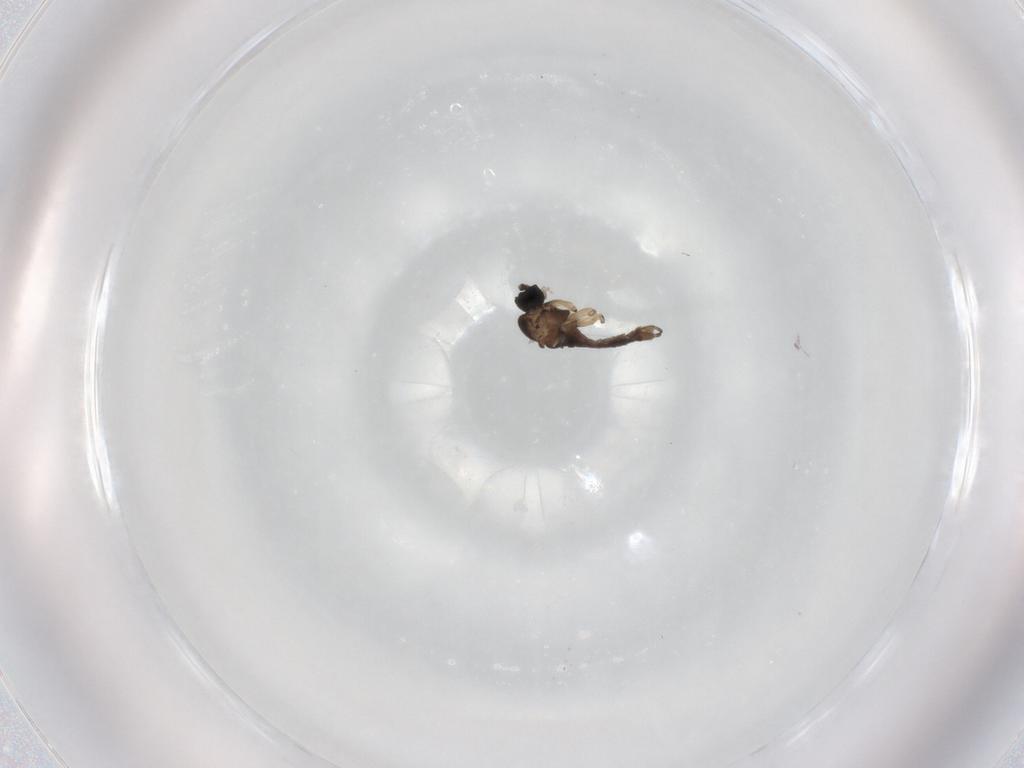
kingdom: Animalia
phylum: Arthropoda
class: Insecta
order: Diptera
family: Sciaridae
